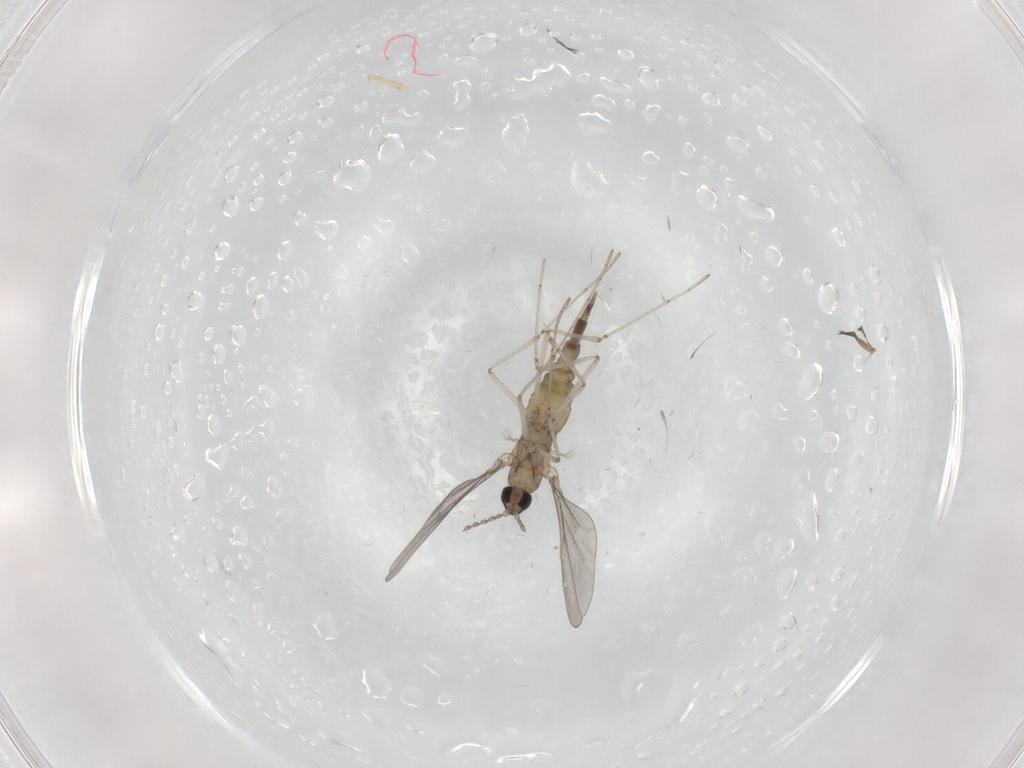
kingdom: Animalia
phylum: Arthropoda
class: Insecta
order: Diptera
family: Cecidomyiidae
